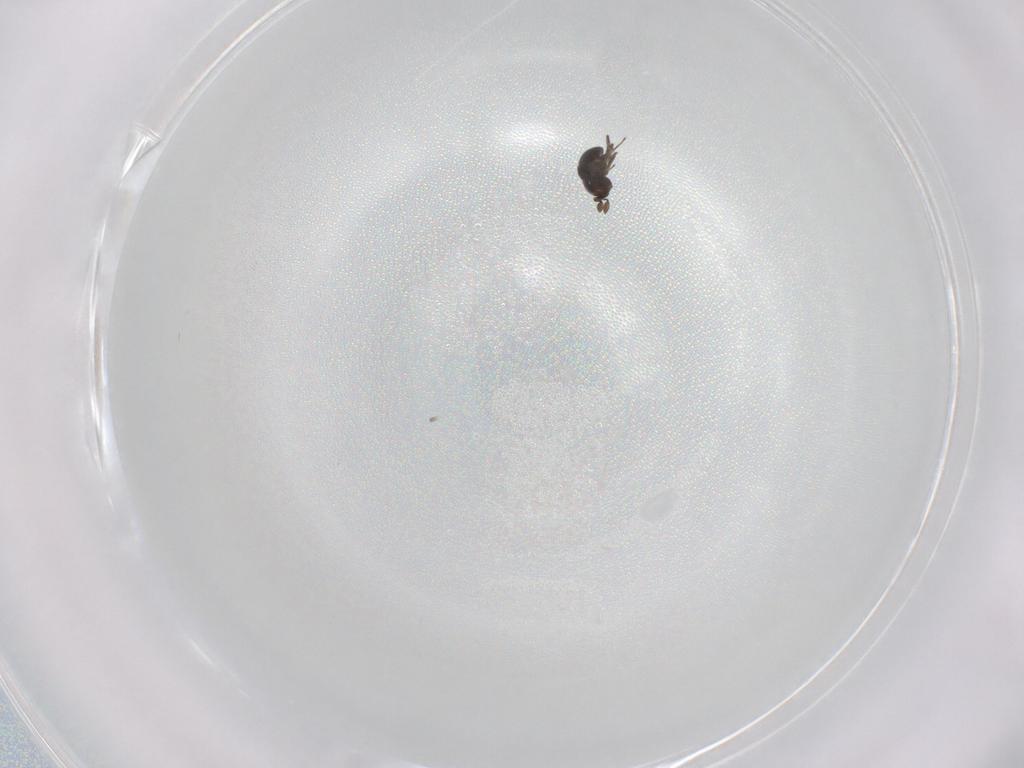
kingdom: Animalia
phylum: Arthropoda
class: Insecta
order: Hymenoptera
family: Scelionidae
